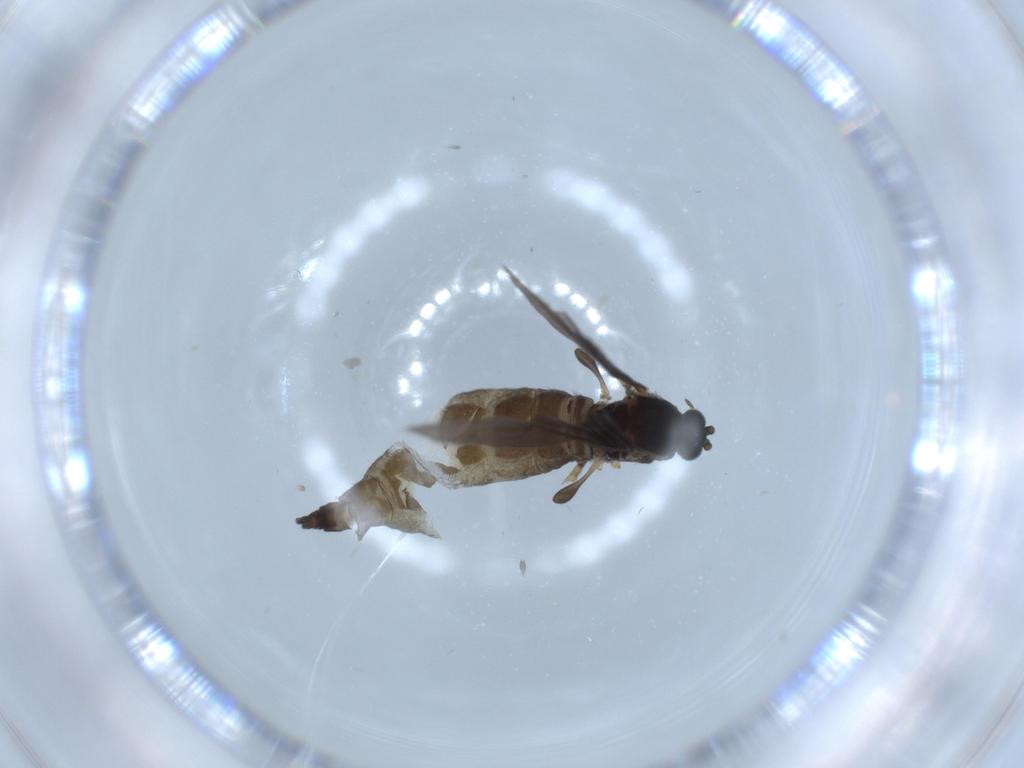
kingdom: Animalia
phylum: Arthropoda
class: Insecta
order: Diptera
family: Sciaridae
